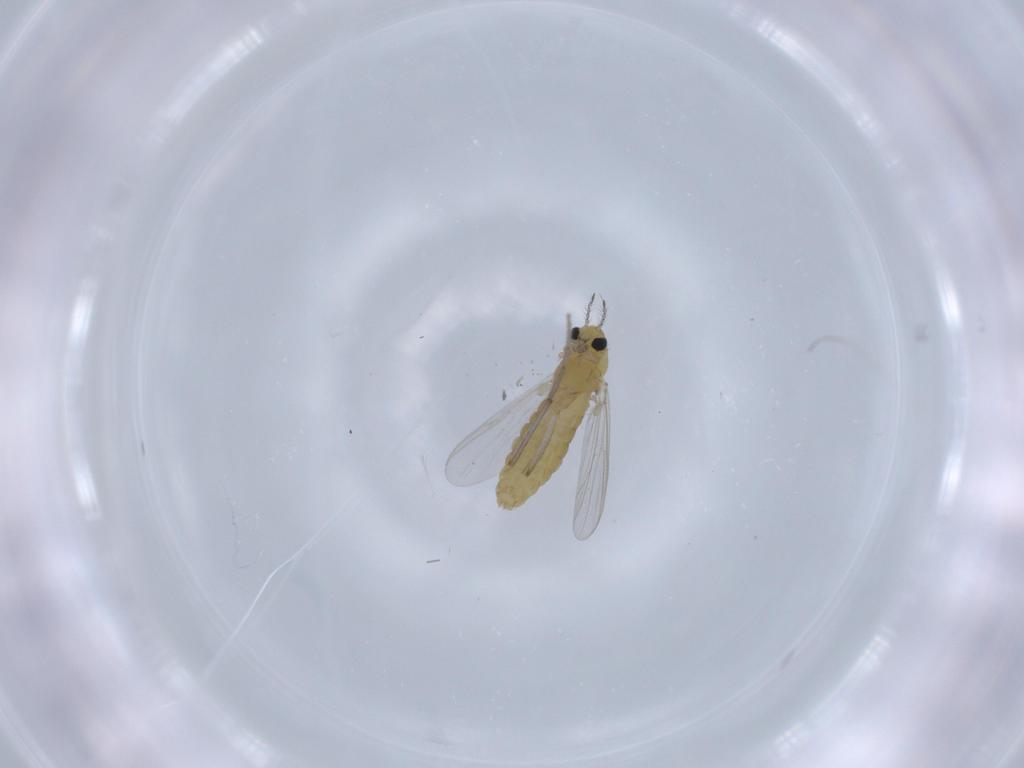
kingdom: Animalia
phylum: Arthropoda
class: Insecta
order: Diptera
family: Chironomidae
